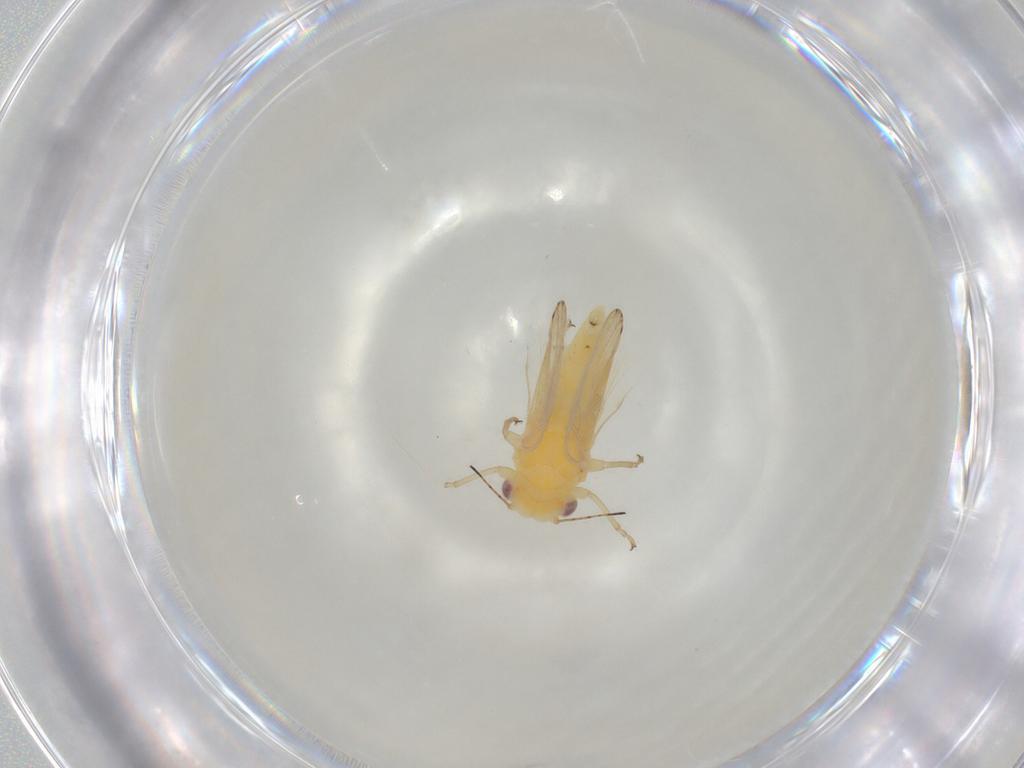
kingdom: Animalia
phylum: Arthropoda
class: Insecta
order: Hemiptera
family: Psylloidea_incertae_sedis
